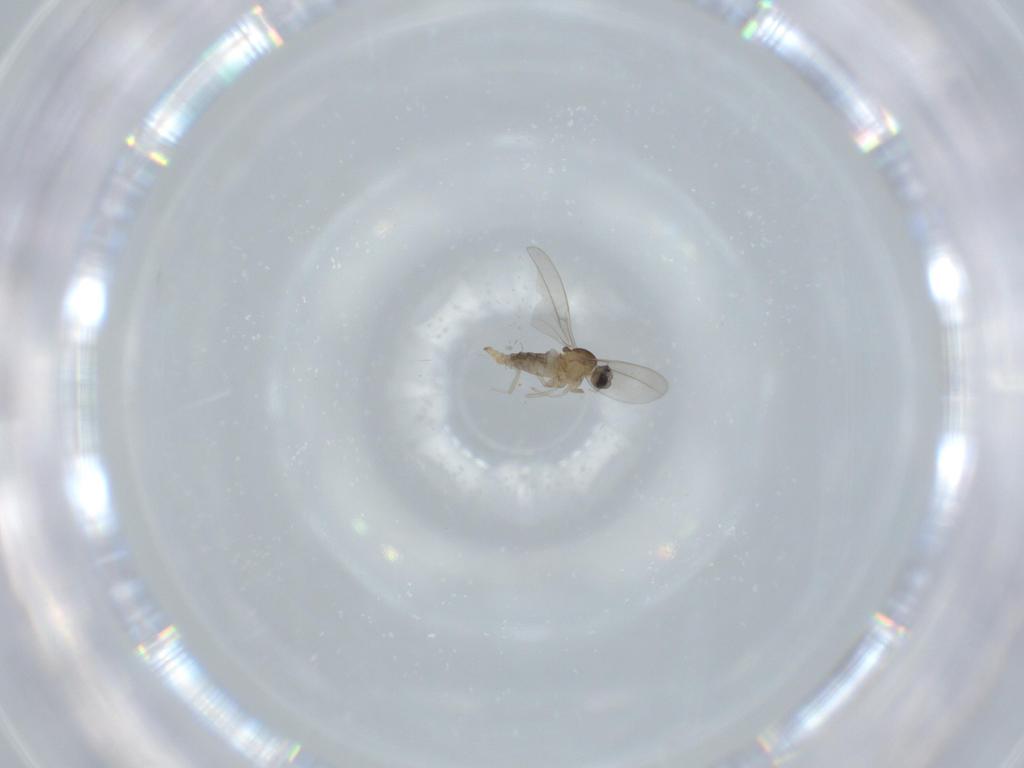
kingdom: Animalia
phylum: Arthropoda
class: Insecta
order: Diptera
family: Cecidomyiidae
